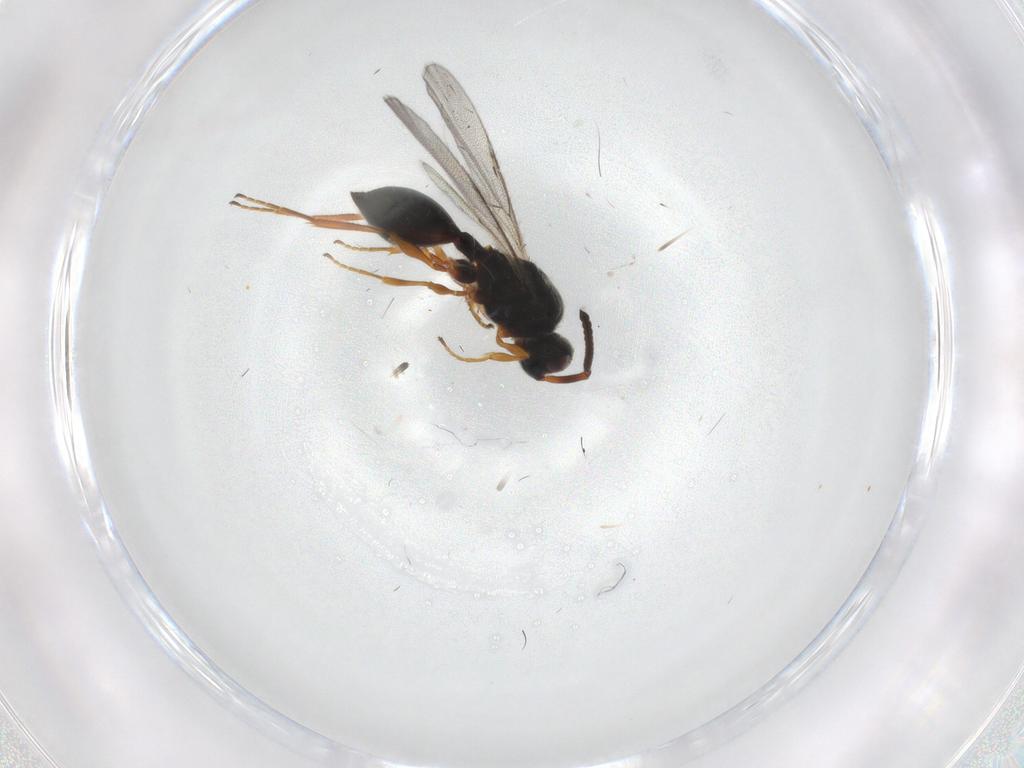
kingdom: Animalia
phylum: Arthropoda
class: Insecta
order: Hymenoptera
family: Diapriidae
